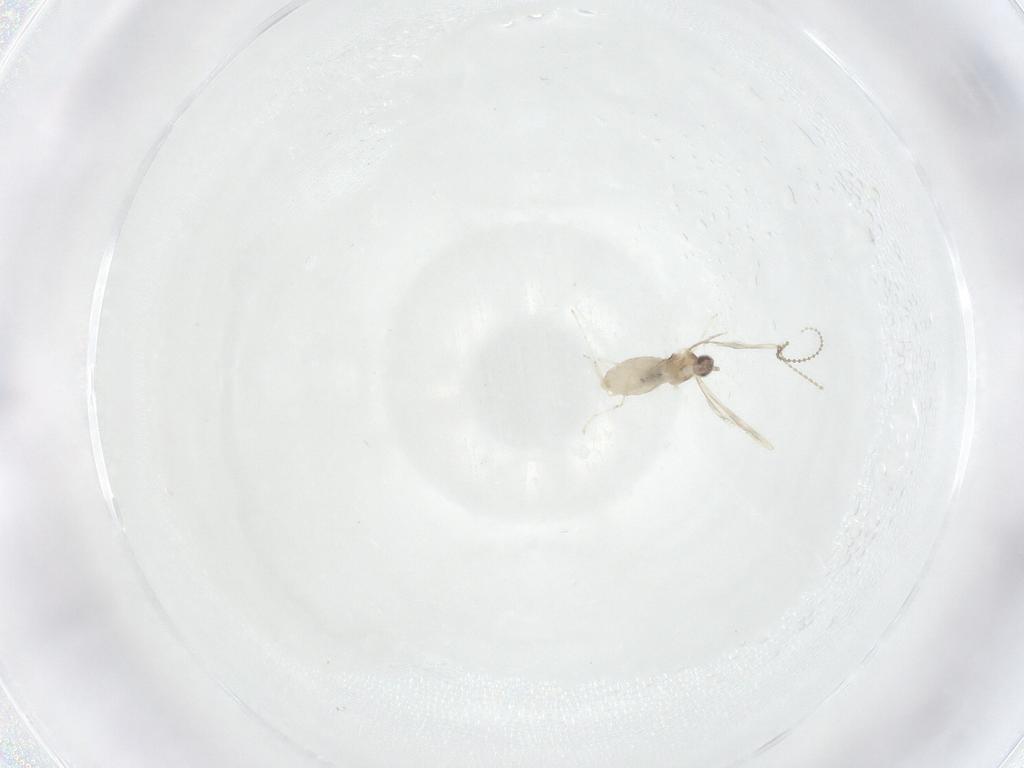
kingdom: Animalia
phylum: Arthropoda
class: Insecta
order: Diptera
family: Cecidomyiidae
